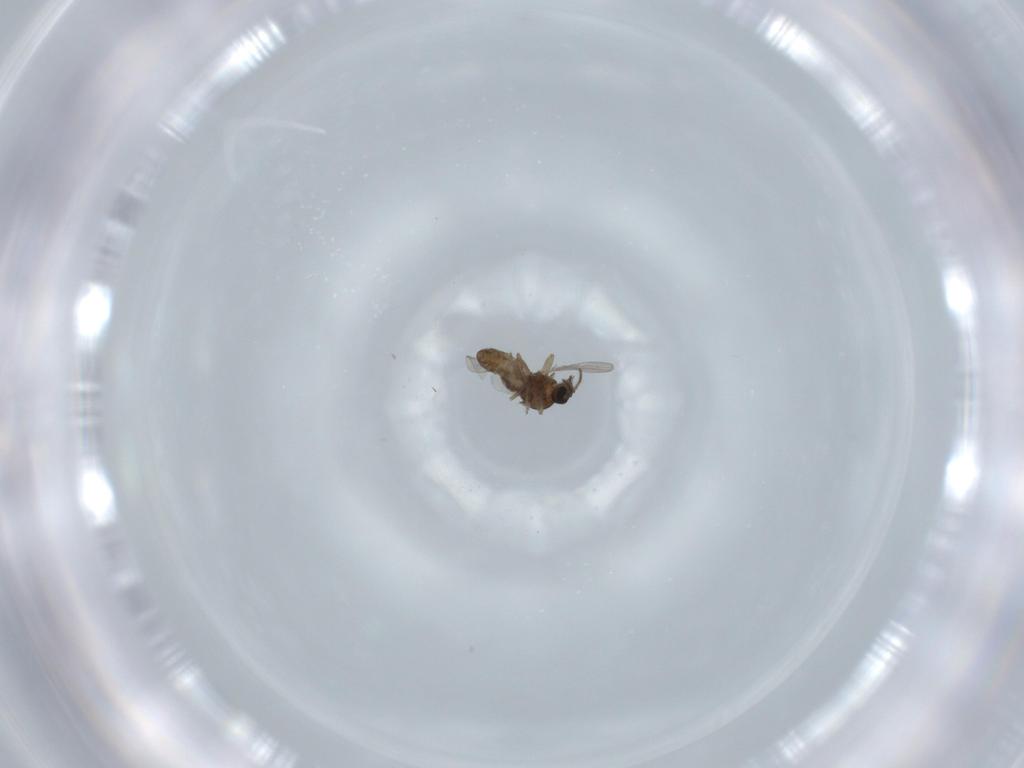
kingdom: Animalia
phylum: Arthropoda
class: Insecta
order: Diptera
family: Ceratopogonidae
